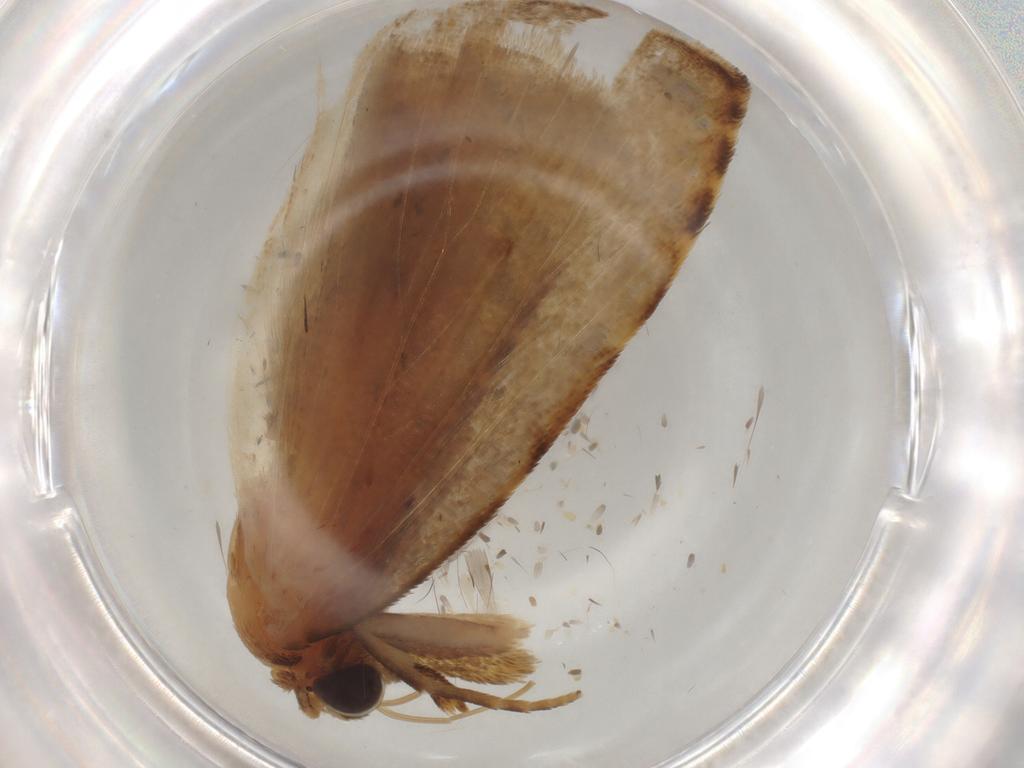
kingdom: Animalia
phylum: Arthropoda
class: Insecta
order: Lepidoptera
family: Erebidae
